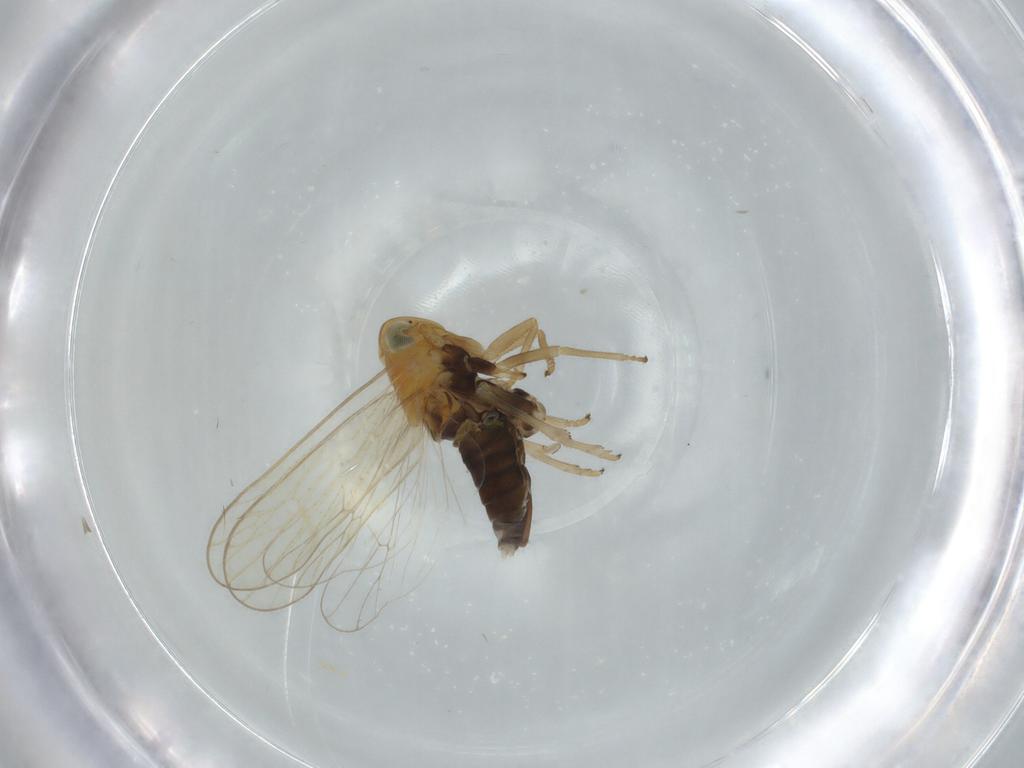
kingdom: Animalia
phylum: Arthropoda
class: Insecta
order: Hemiptera
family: Delphacidae
